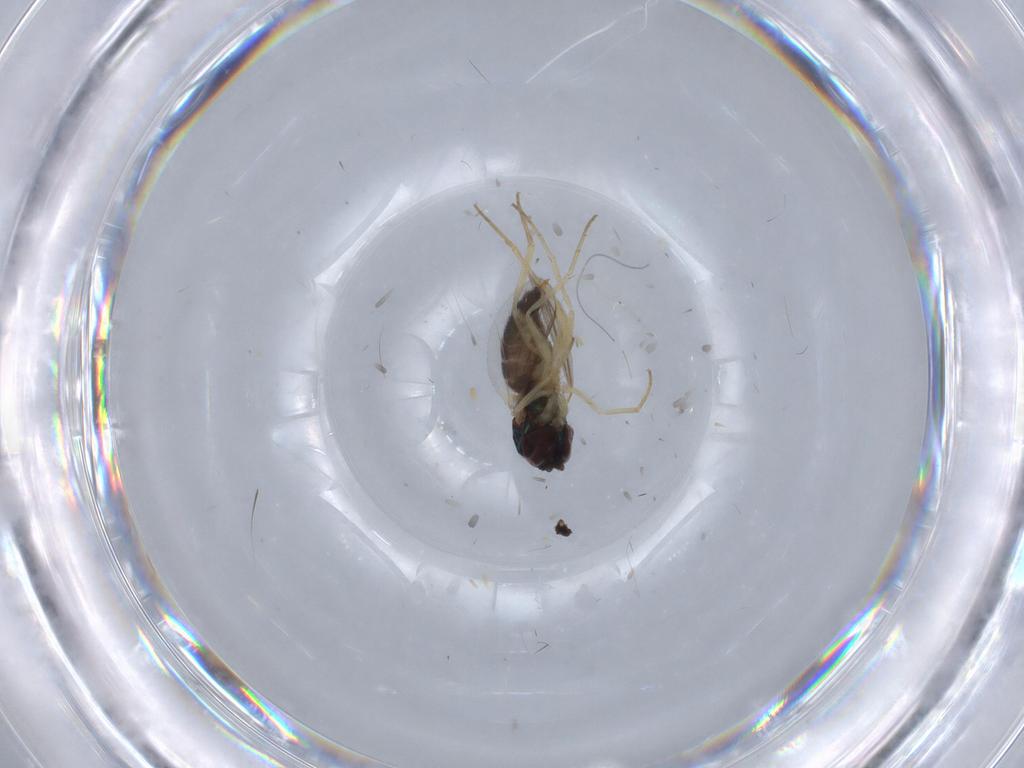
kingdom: Animalia
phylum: Arthropoda
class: Insecta
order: Diptera
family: Dolichopodidae
